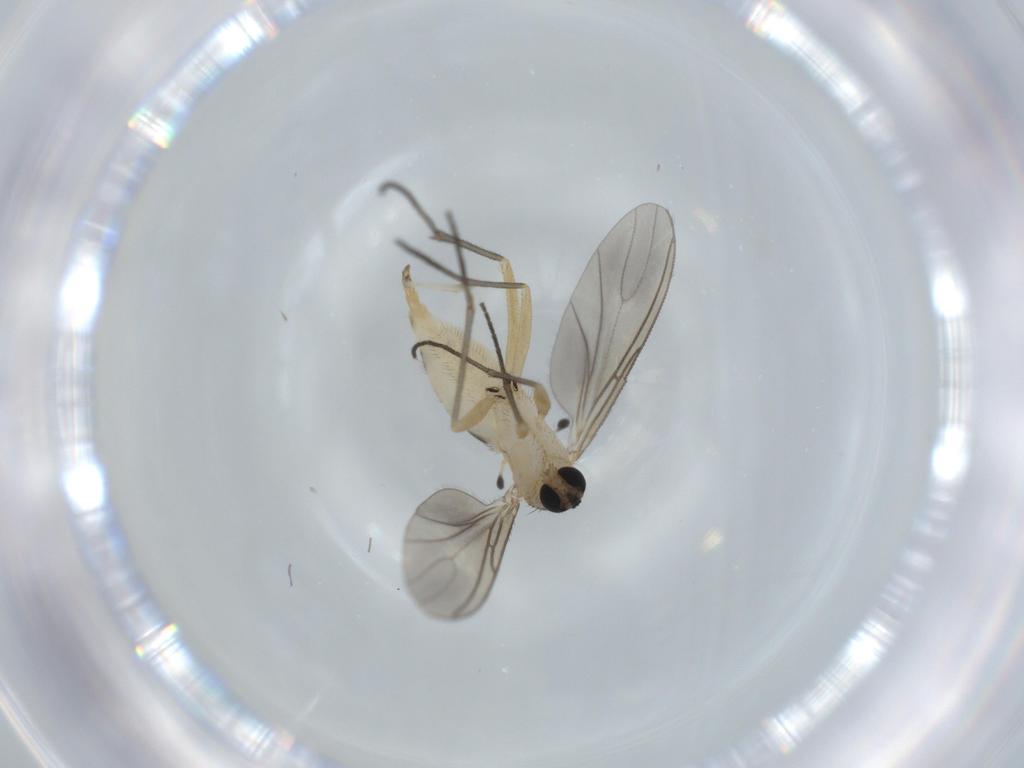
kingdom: Animalia
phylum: Arthropoda
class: Insecta
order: Diptera
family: Sciaridae
